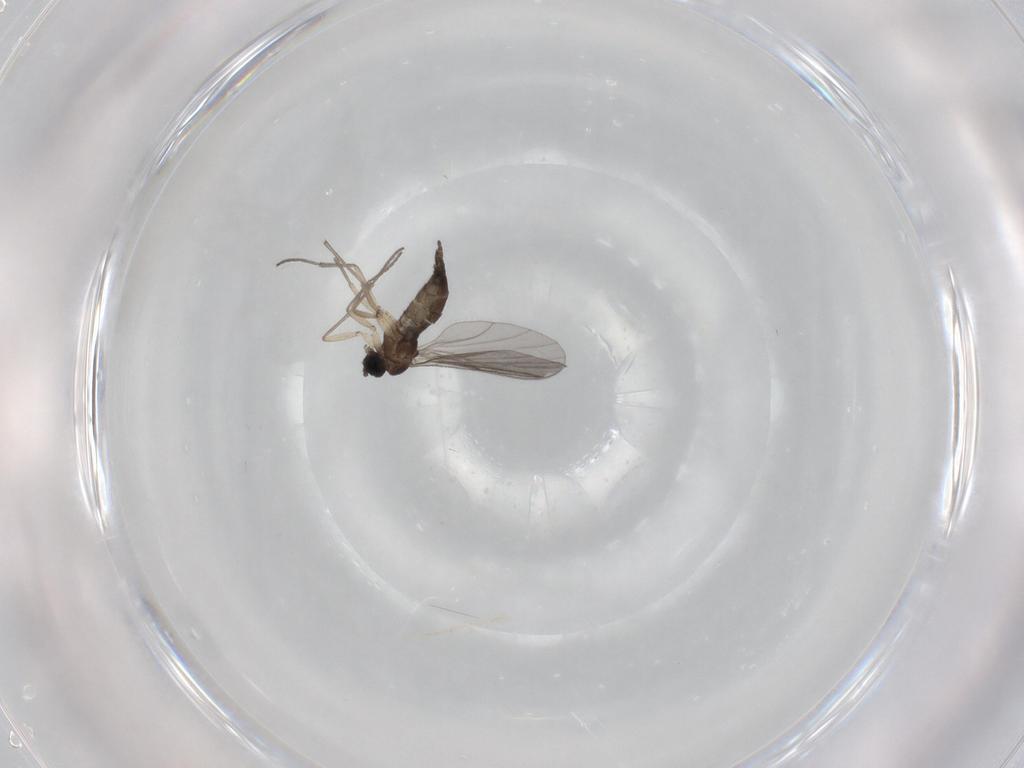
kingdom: Animalia
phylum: Arthropoda
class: Insecta
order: Diptera
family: Sciaridae
